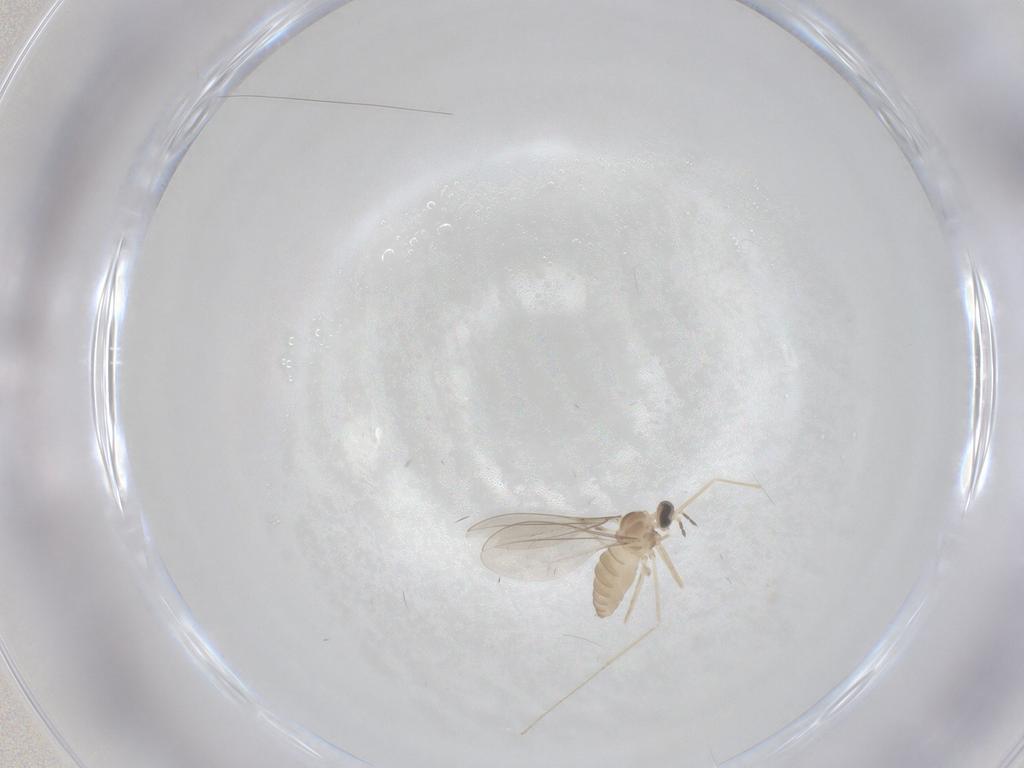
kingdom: Animalia
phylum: Arthropoda
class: Insecta
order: Diptera
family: Cecidomyiidae
